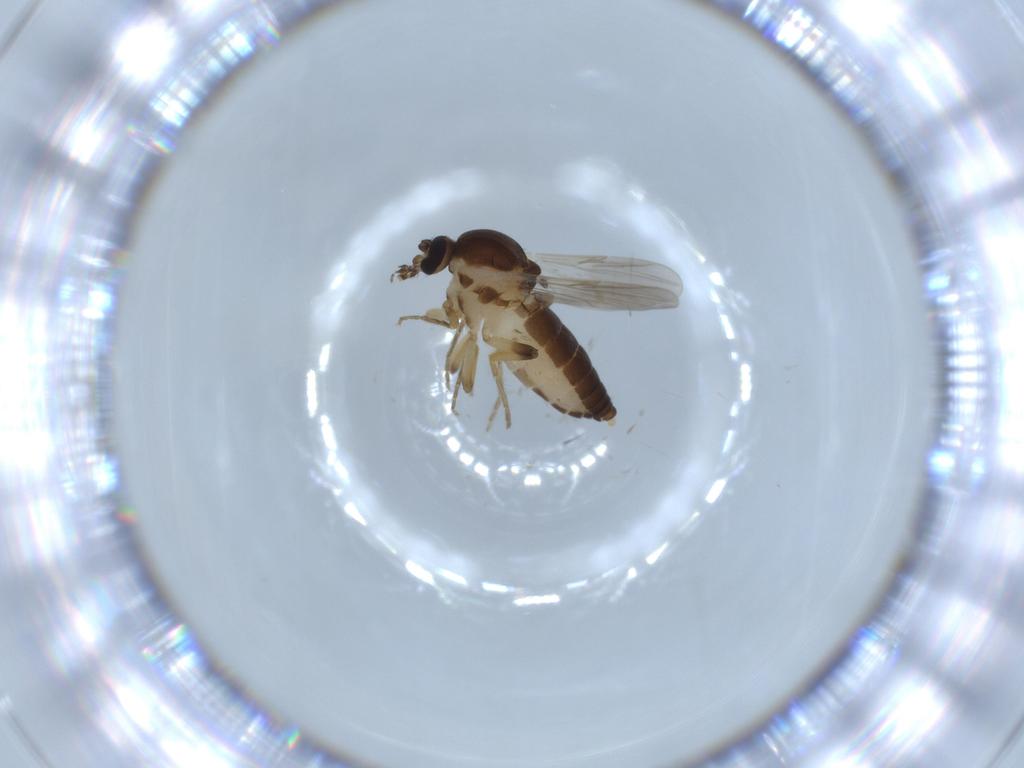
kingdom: Animalia
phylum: Arthropoda
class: Insecta
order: Diptera
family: Ceratopogonidae
